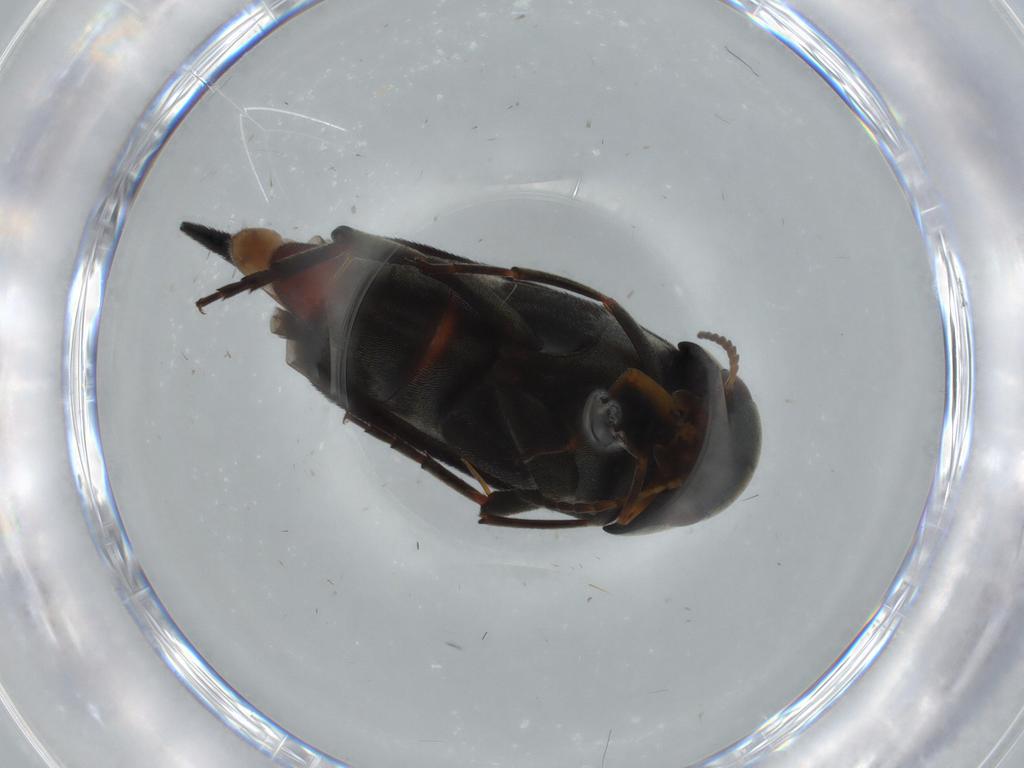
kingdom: Animalia
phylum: Arthropoda
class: Insecta
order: Coleoptera
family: Mordellidae
